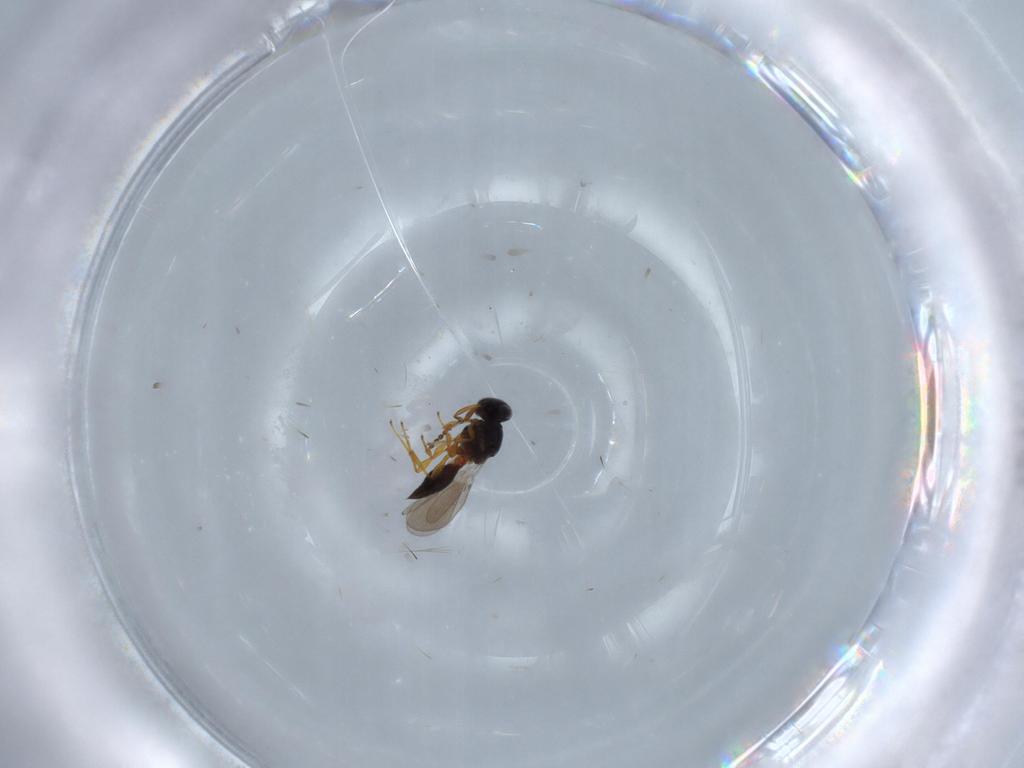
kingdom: Animalia
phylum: Arthropoda
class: Insecta
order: Hymenoptera
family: Platygastridae
